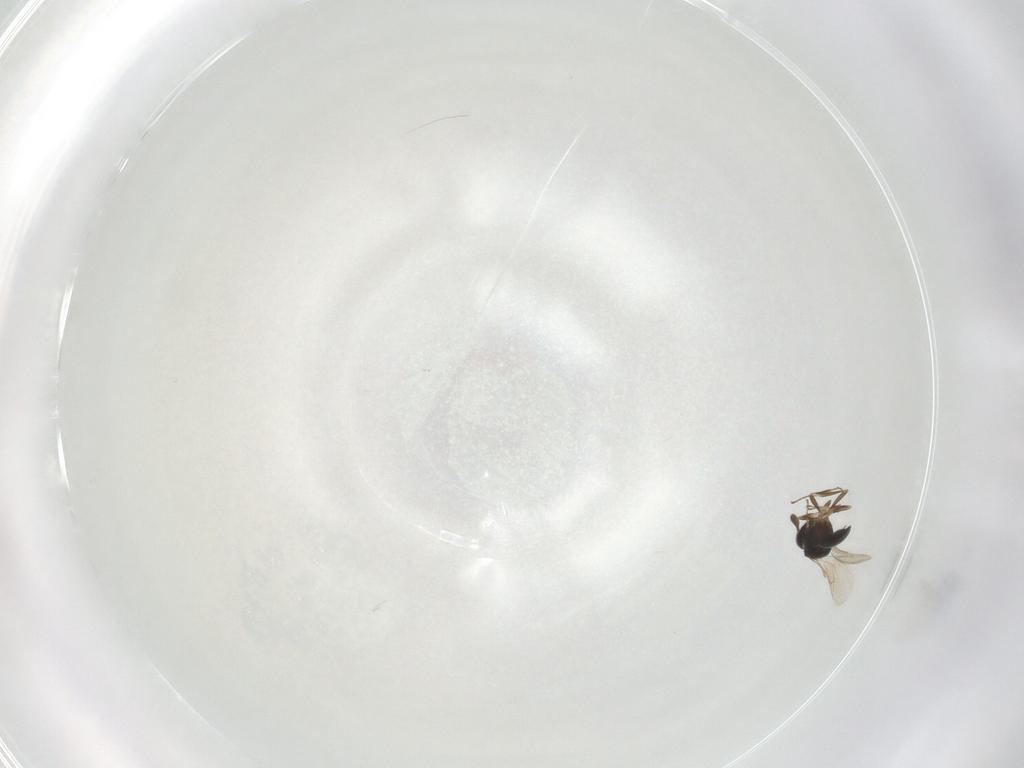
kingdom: Animalia
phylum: Arthropoda
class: Insecta
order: Hymenoptera
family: Scelionidae
